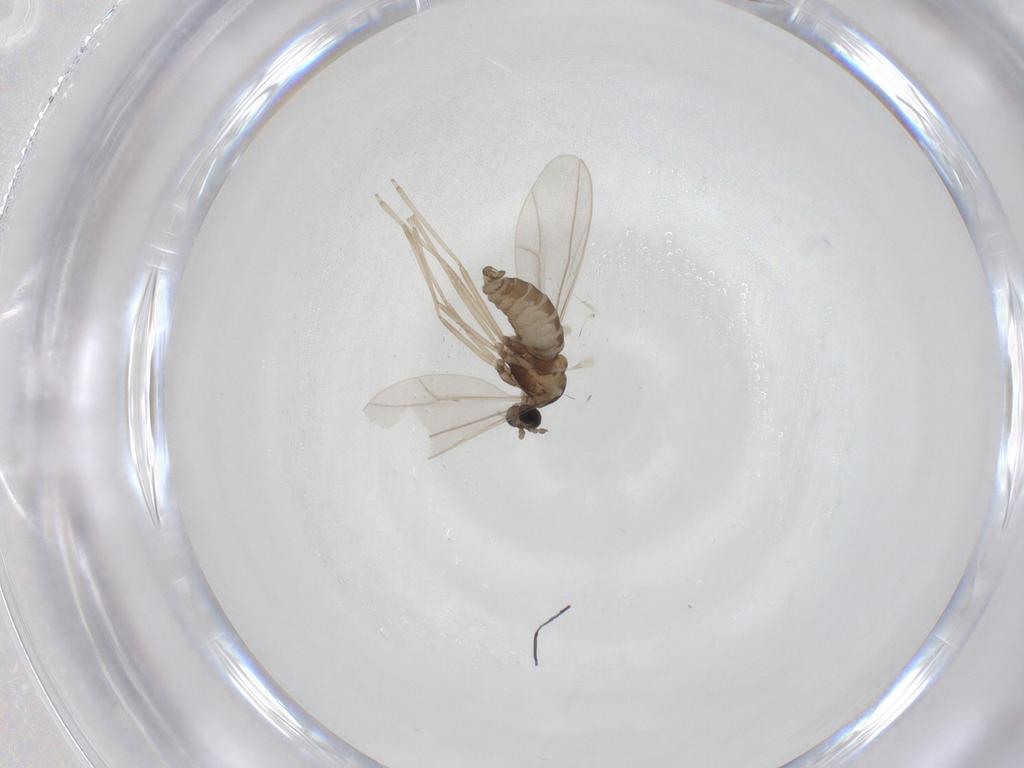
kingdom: Animalia
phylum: Arthropoda
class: Insecta
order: Diptera
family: Cecidomyiidae
